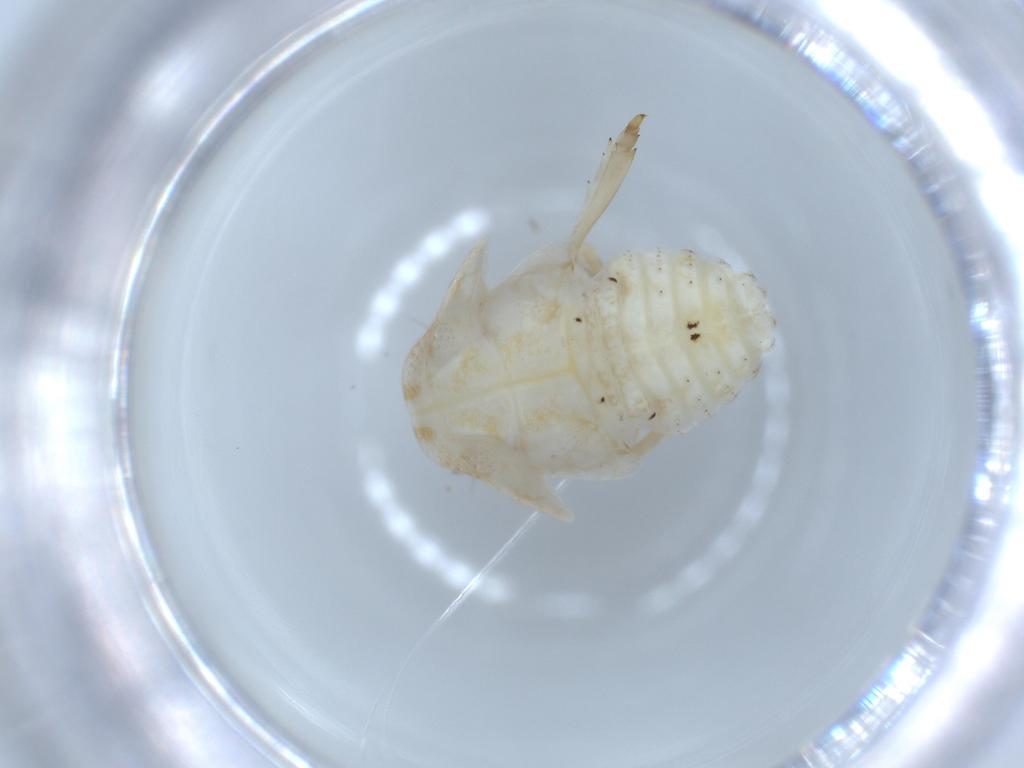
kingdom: Animalia
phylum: Arthropoda
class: Insecta
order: Hemiptera
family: Acanaloniidae
